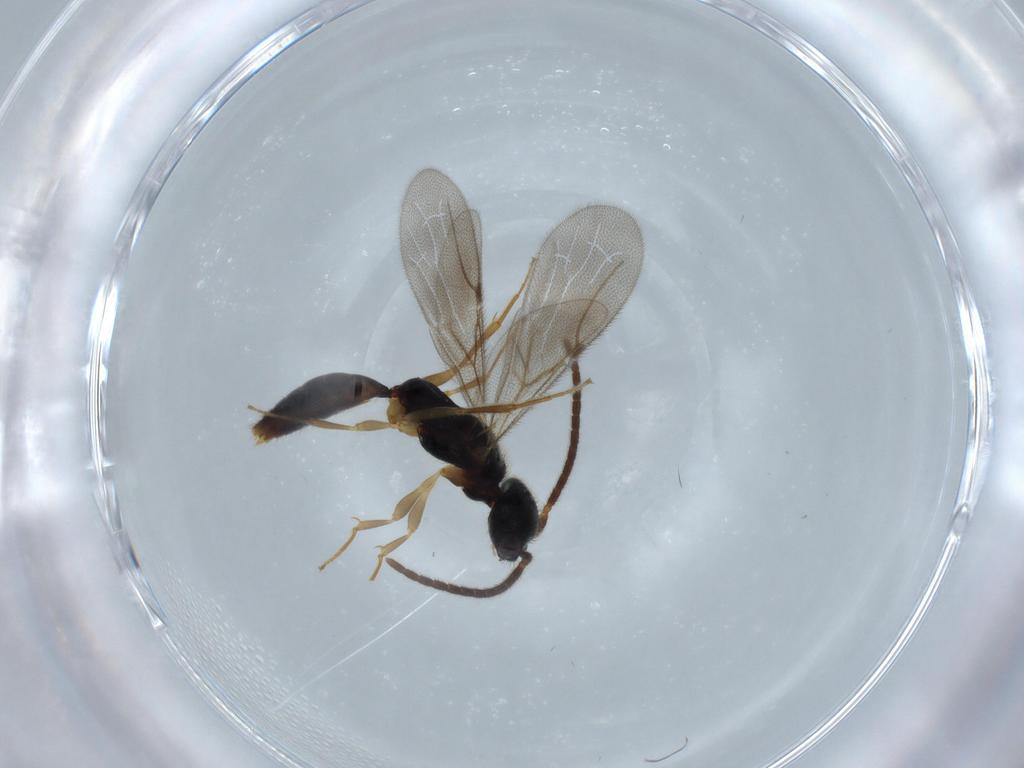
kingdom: Animalia
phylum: Arthropoda
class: Insecta
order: Hymenoptera
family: Bethylidae
